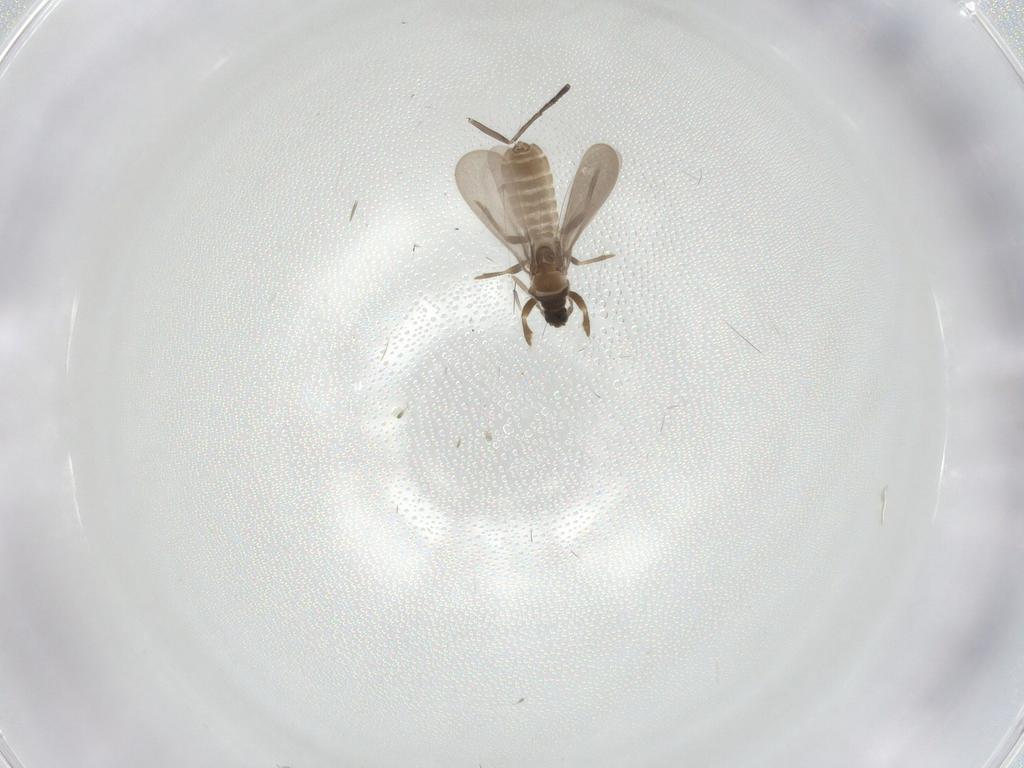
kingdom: Animalia
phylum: Arthropoda
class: Insecta
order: Hemiptera
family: Enicocephalidae
